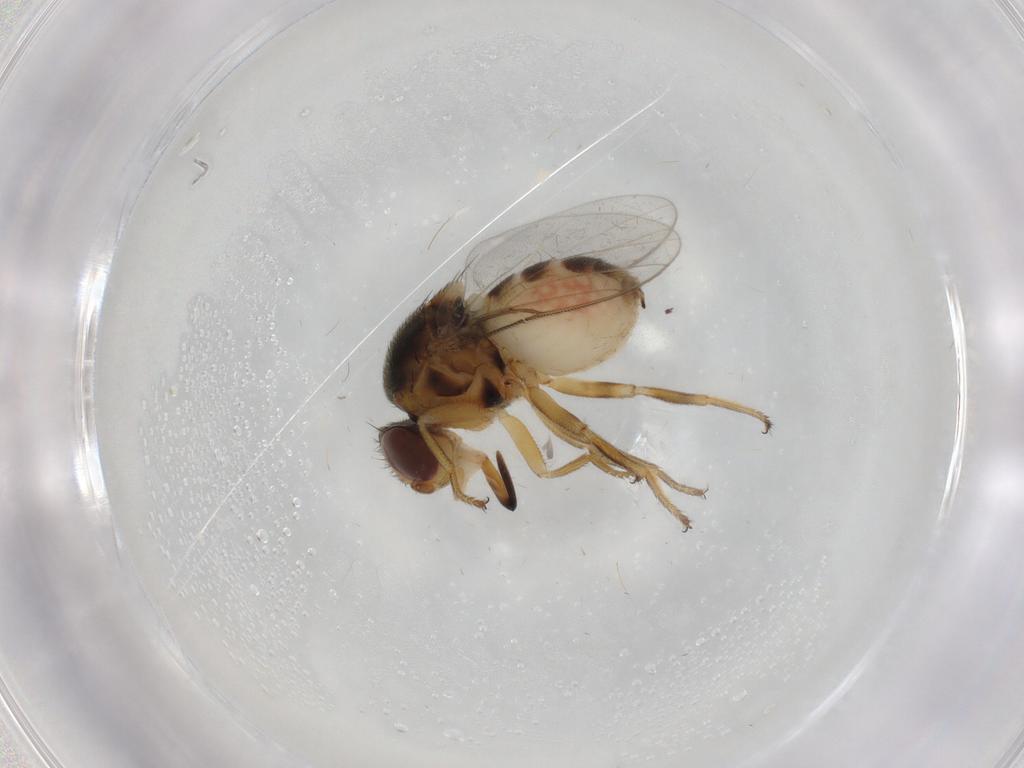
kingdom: Animalia
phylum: Arthropoda
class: Insecta
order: Diptera
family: Chloropidae
